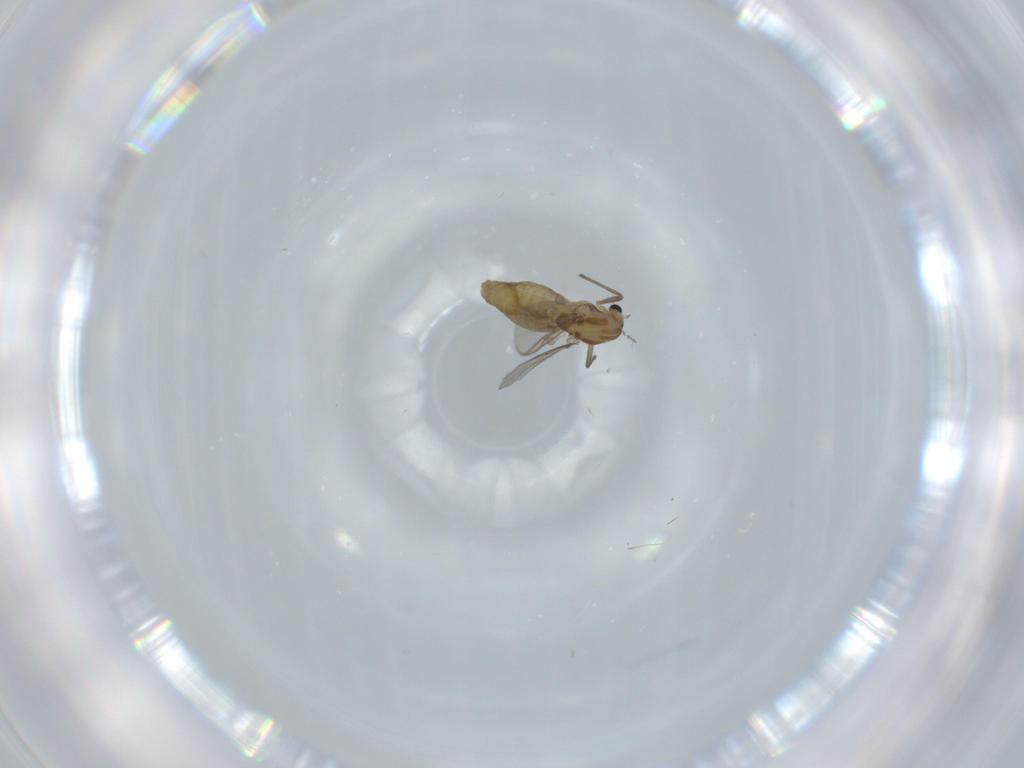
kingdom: Animalia
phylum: Arthropoda
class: Insecta
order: Diptera
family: Chironomidae
